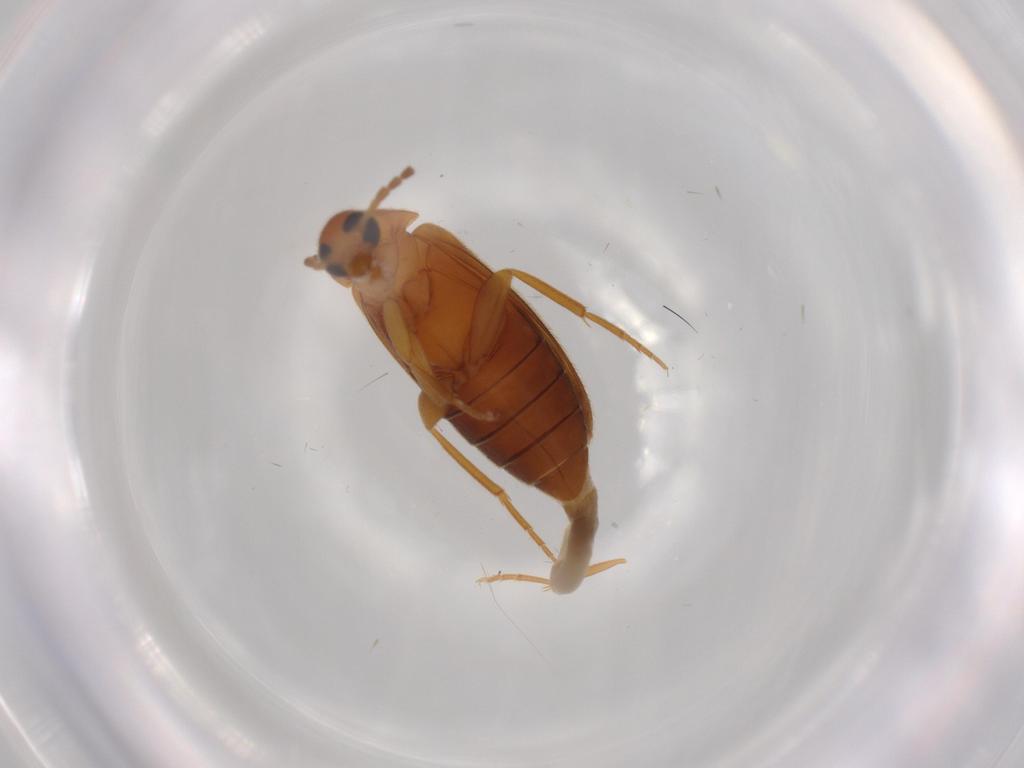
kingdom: Animalia
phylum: Arthropoda
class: Insecta
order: Coleoptera
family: Scraptiidae
